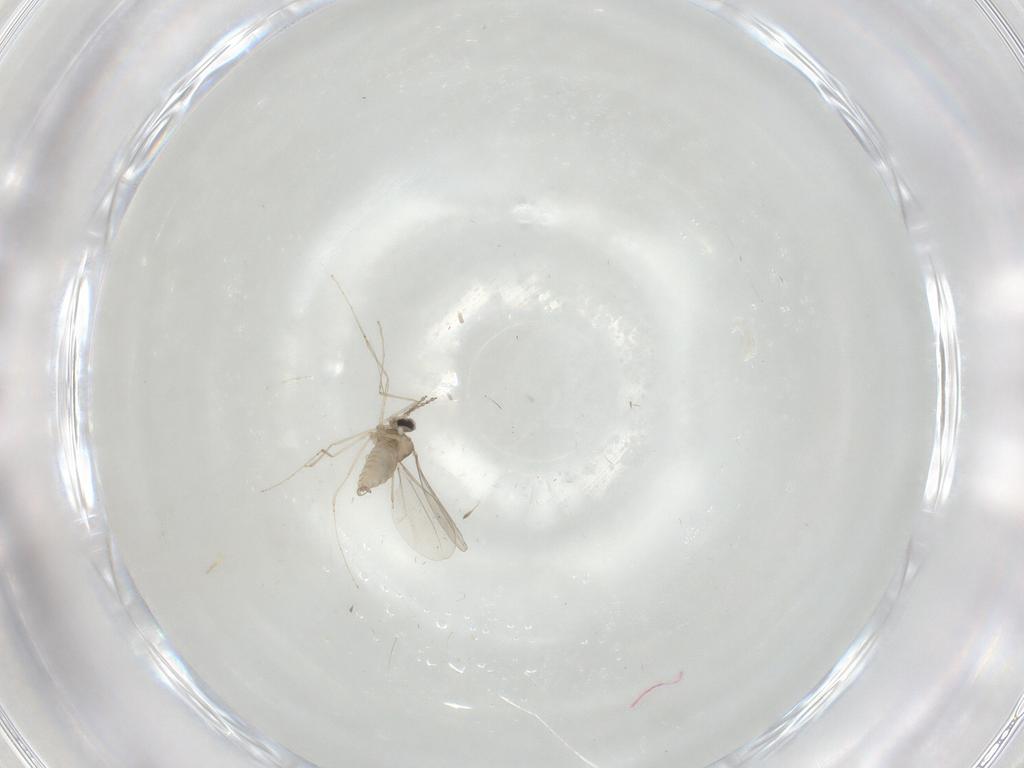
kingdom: Animalia
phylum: Arthropoda
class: Insecta
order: Diptera
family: Cecidomyiidae
